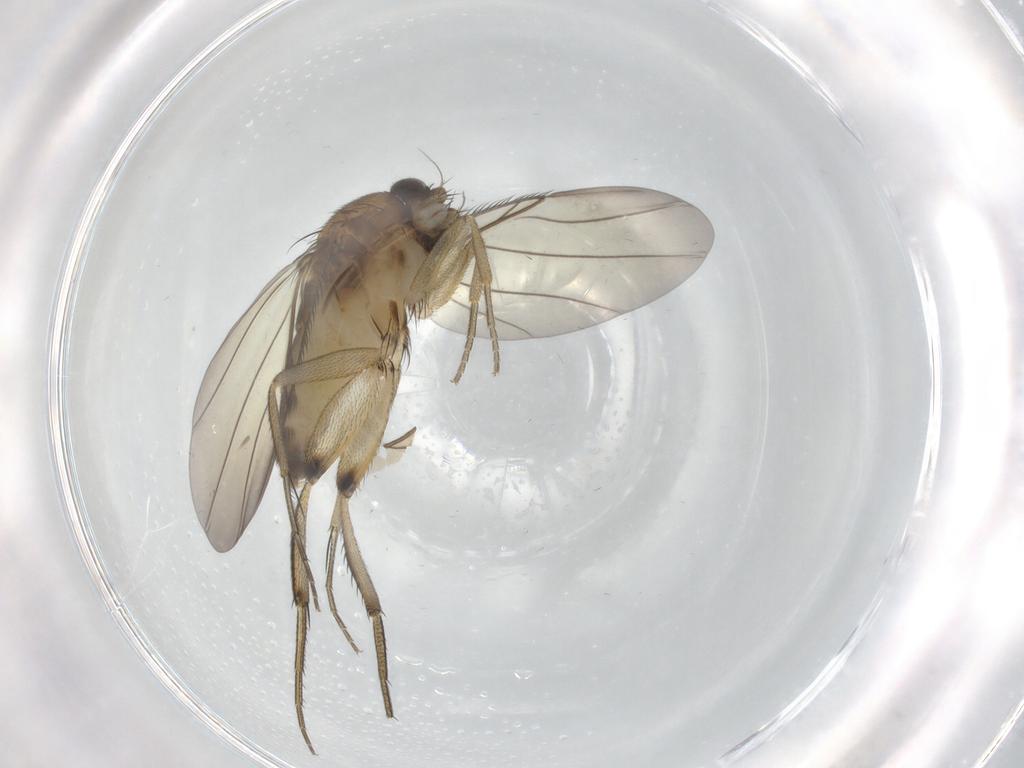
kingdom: Animalia
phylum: Arthropoda
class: Insecta
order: Diptera
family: Phoridae
